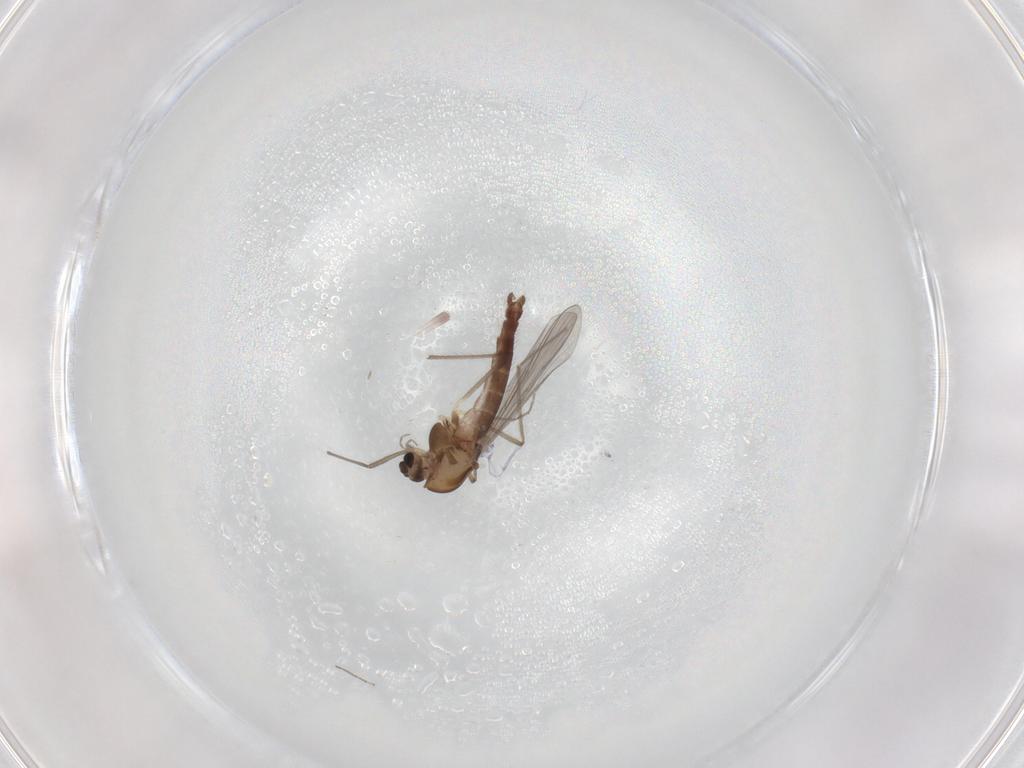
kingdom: Animalia
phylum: Arthropoda
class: Insecta
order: Diptera
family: Chironomidae
